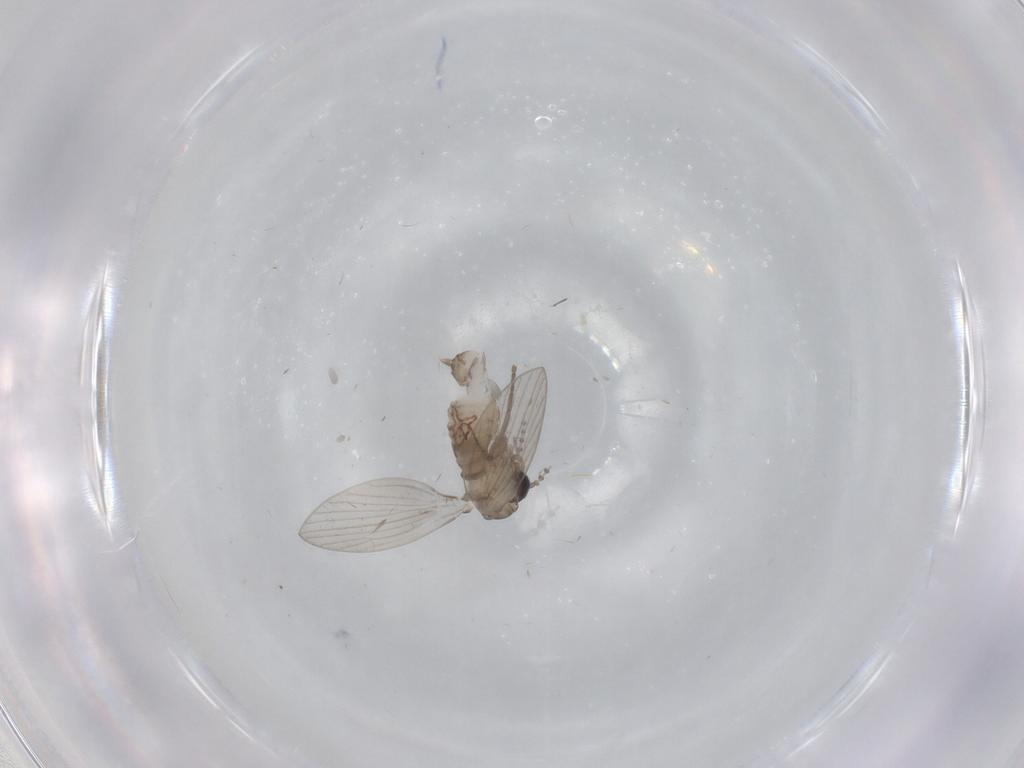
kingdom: Animalia
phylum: Arthropoda
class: Insecta
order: Diptera
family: Psychodidae
